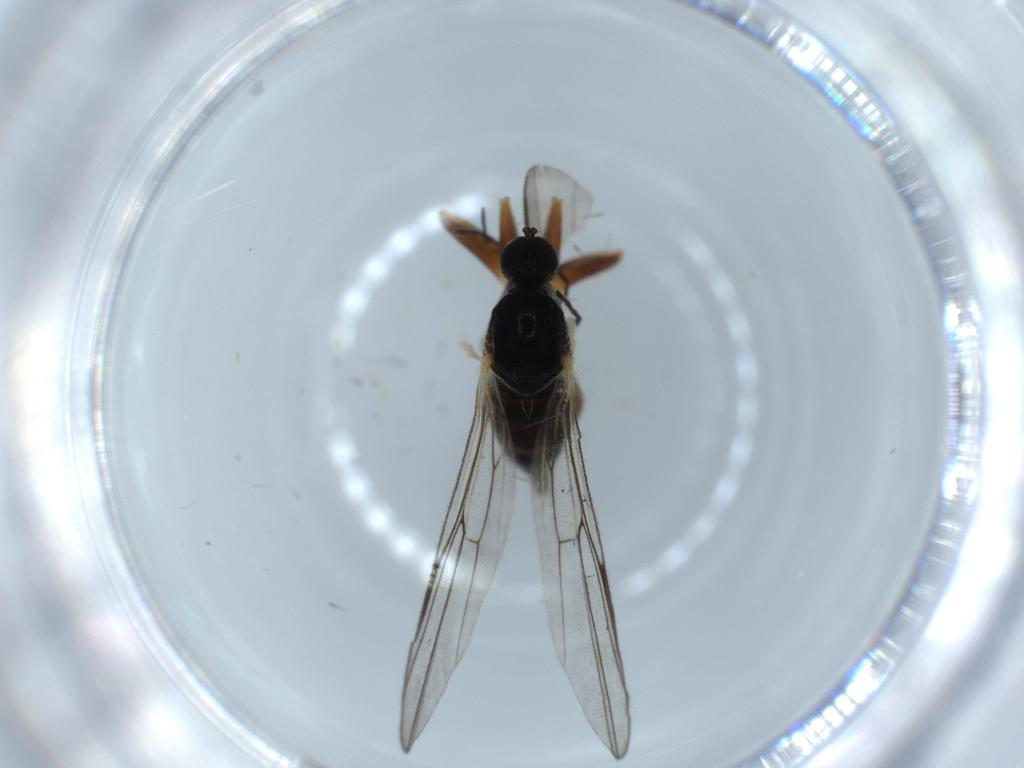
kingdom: Animalia
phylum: Arthropoda
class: Insecta
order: Diptera
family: Hybotidae
